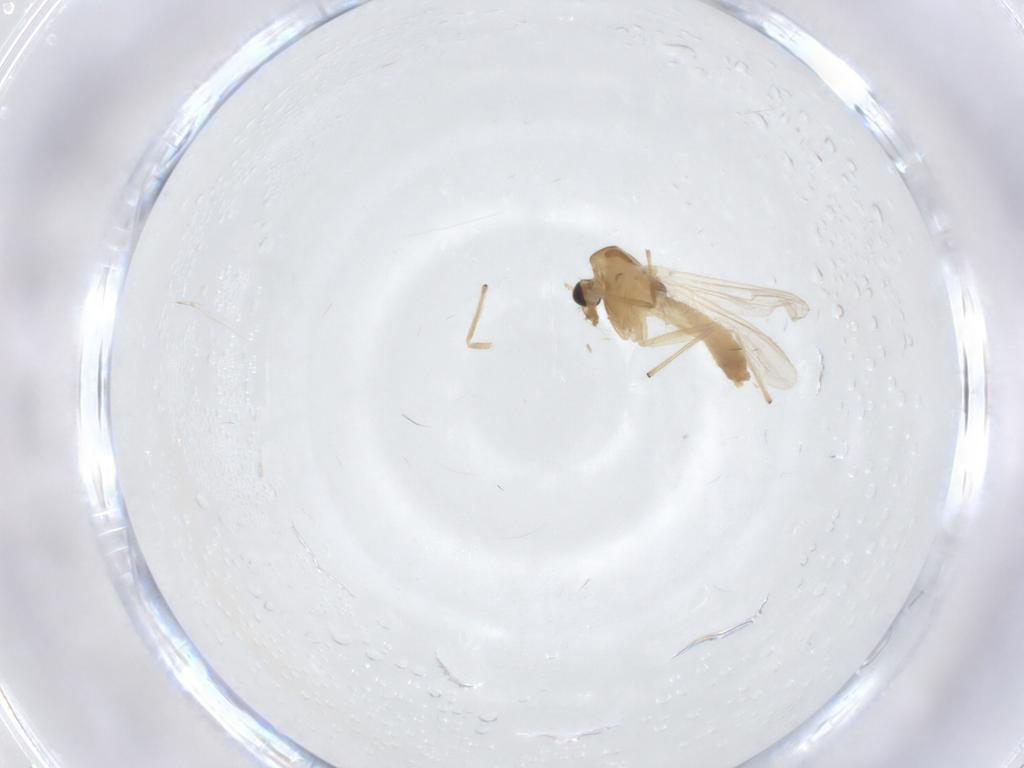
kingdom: Animalia
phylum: Arthropoda
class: Insecta
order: Diptera
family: Chironomidae
